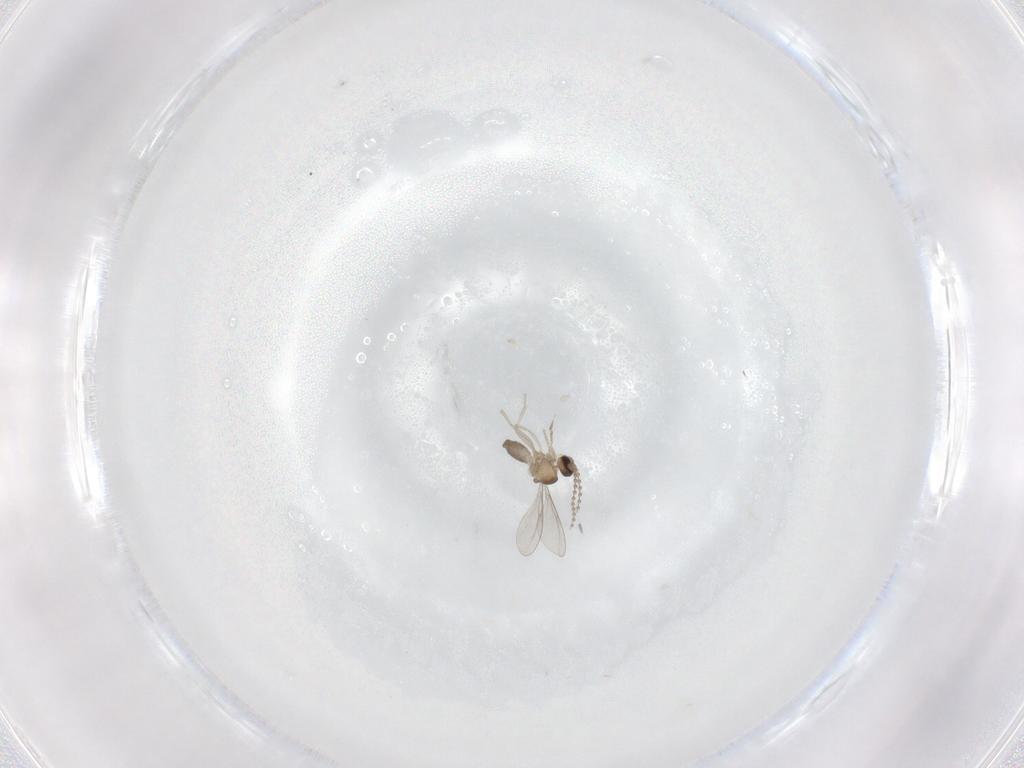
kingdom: Animalia
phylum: Arthropoda
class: Insecta
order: Diptera
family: Cecidomyiidae
